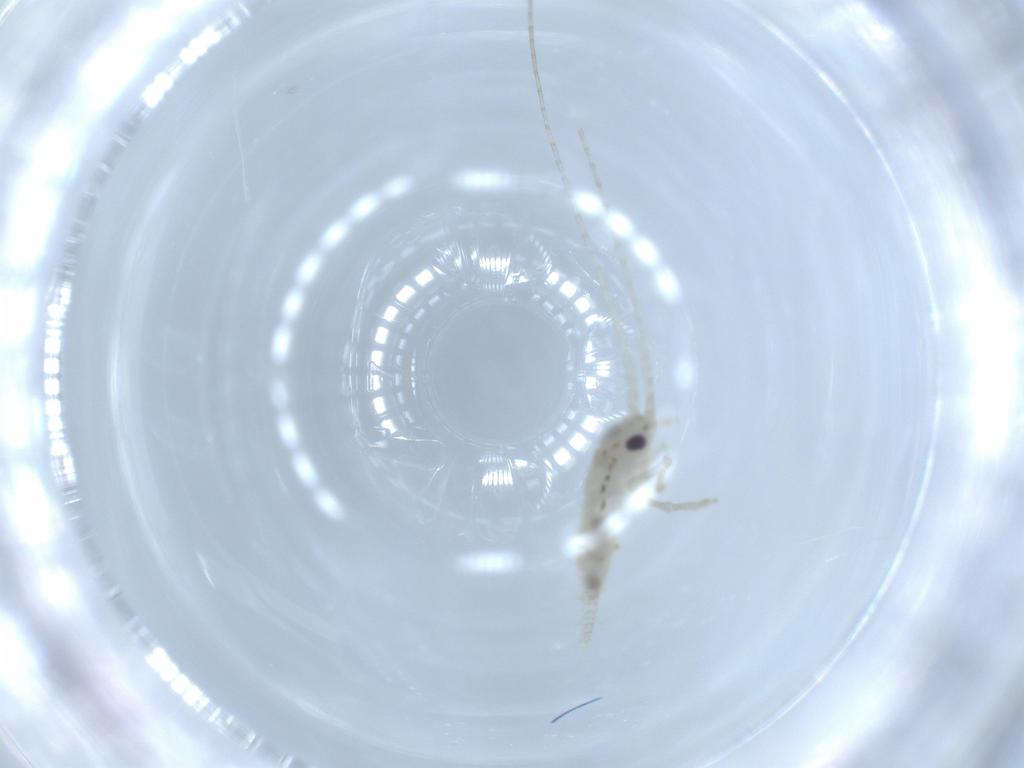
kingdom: Animalia
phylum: Arthropoda
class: Insecta
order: Orthoptera
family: Trigonidiidae
